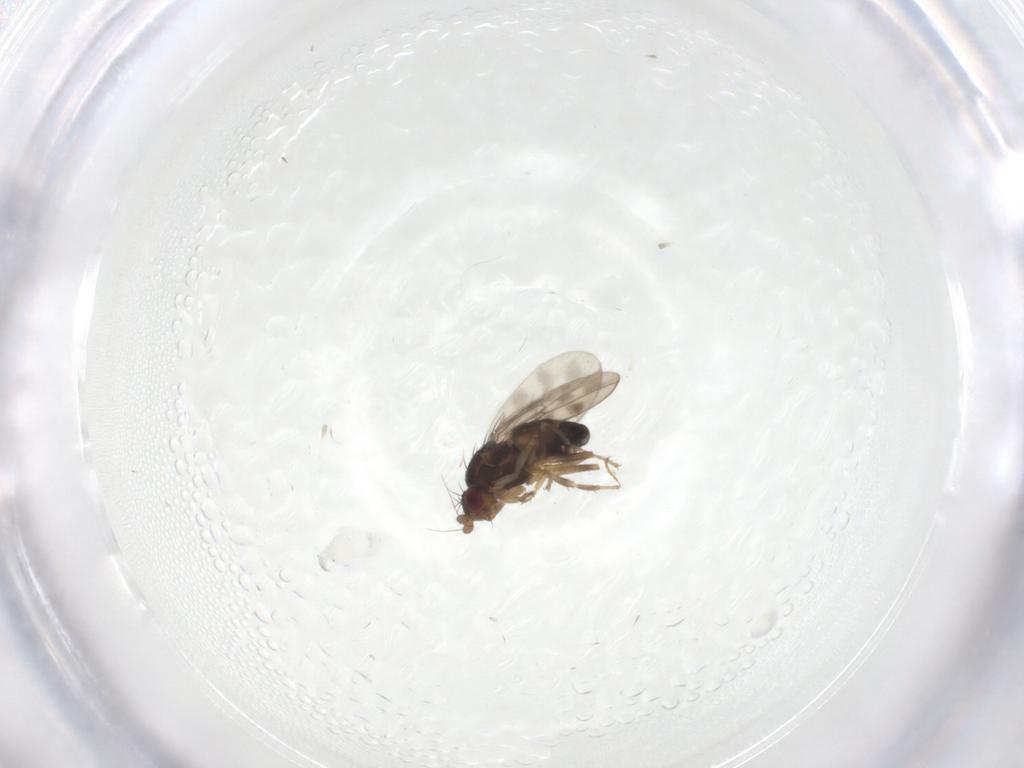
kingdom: Animalia
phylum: Arthropoda
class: Insecta
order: Diptera
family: Sphaeroceridae
